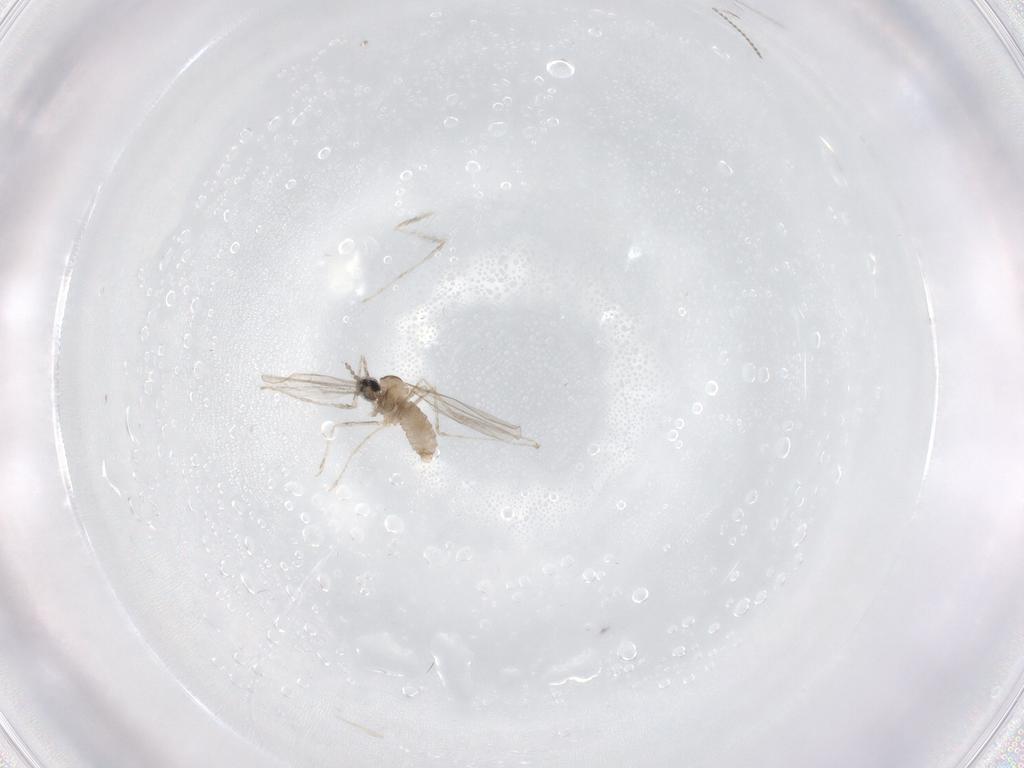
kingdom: Animalia
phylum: Arthropoda
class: Insecta
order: Diptera
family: Cecidomyiidae
